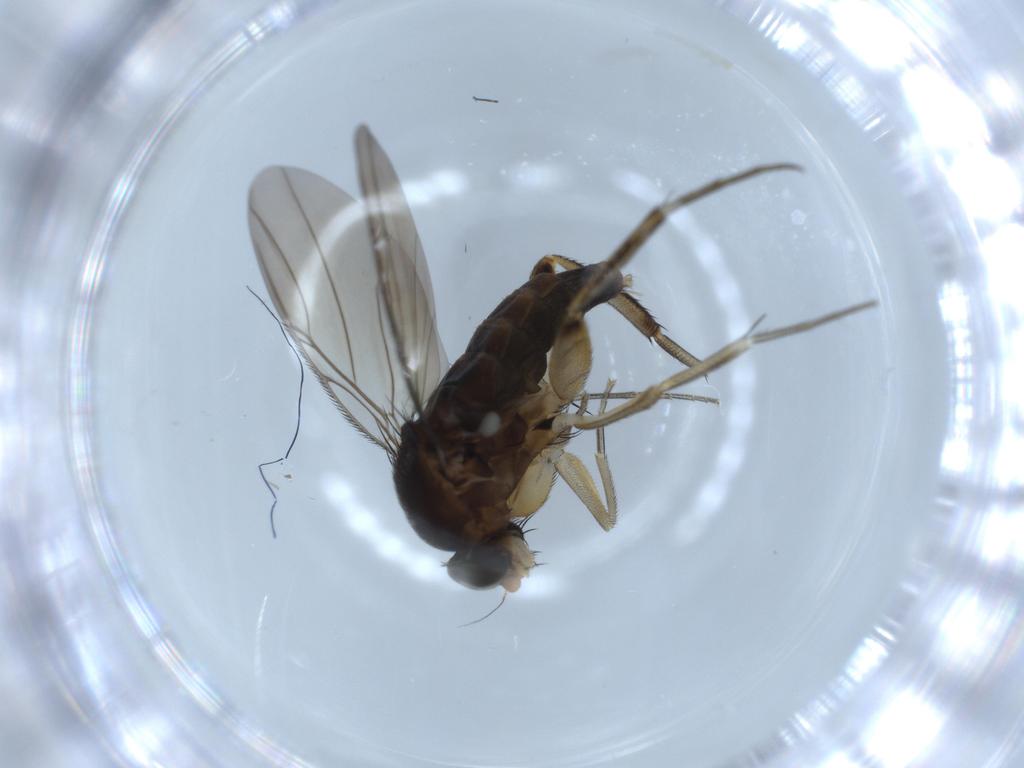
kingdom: Animalia
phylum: Arthropoda
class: Insecta
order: Diptera
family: Phoridae
